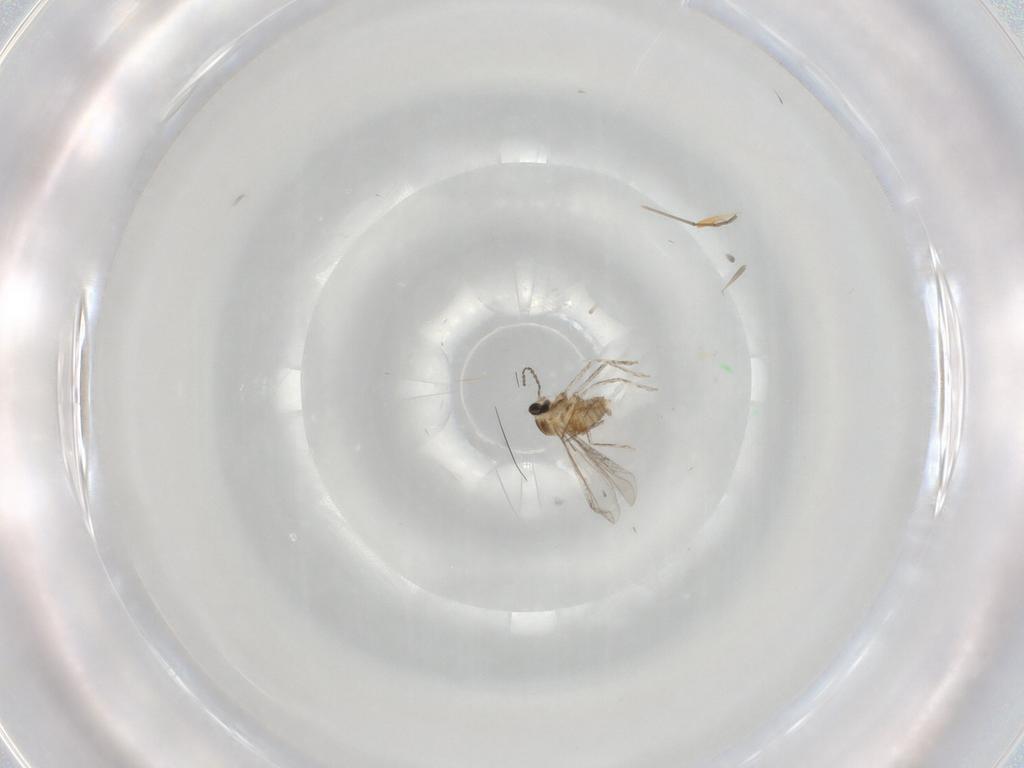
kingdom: Animalia
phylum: Arthropoda
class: Insecta
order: Diptera
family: Cecidomyiidae
